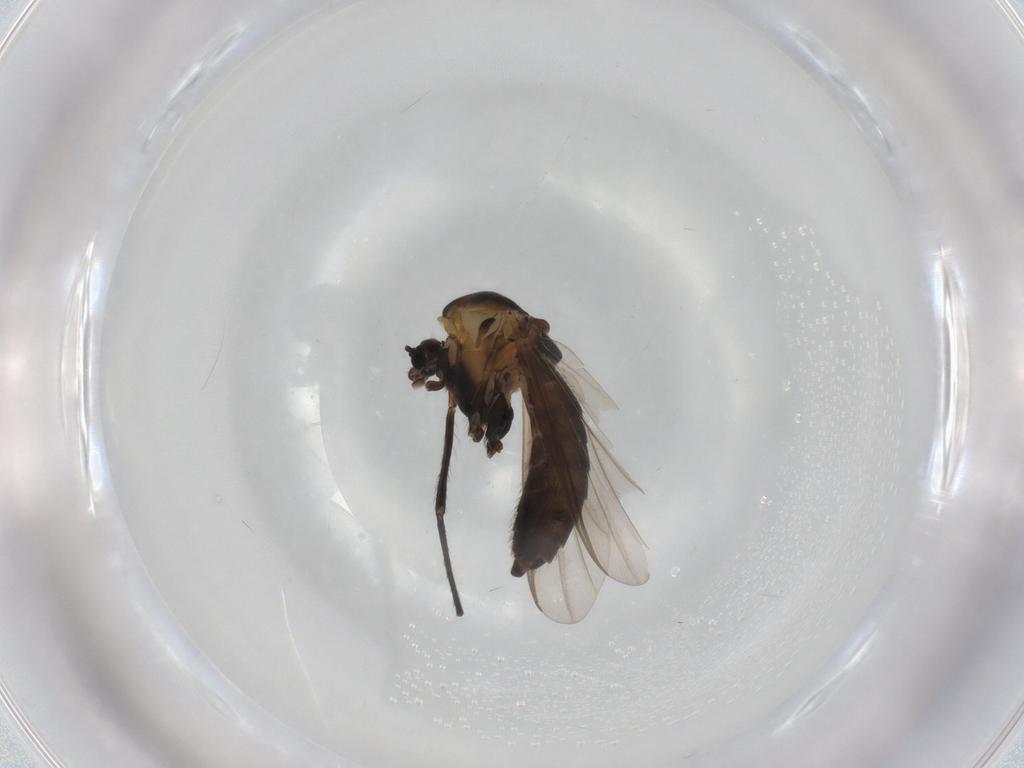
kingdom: Animalia
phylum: Arthropoda
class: Insecta
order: Diptera
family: Chironomidae
